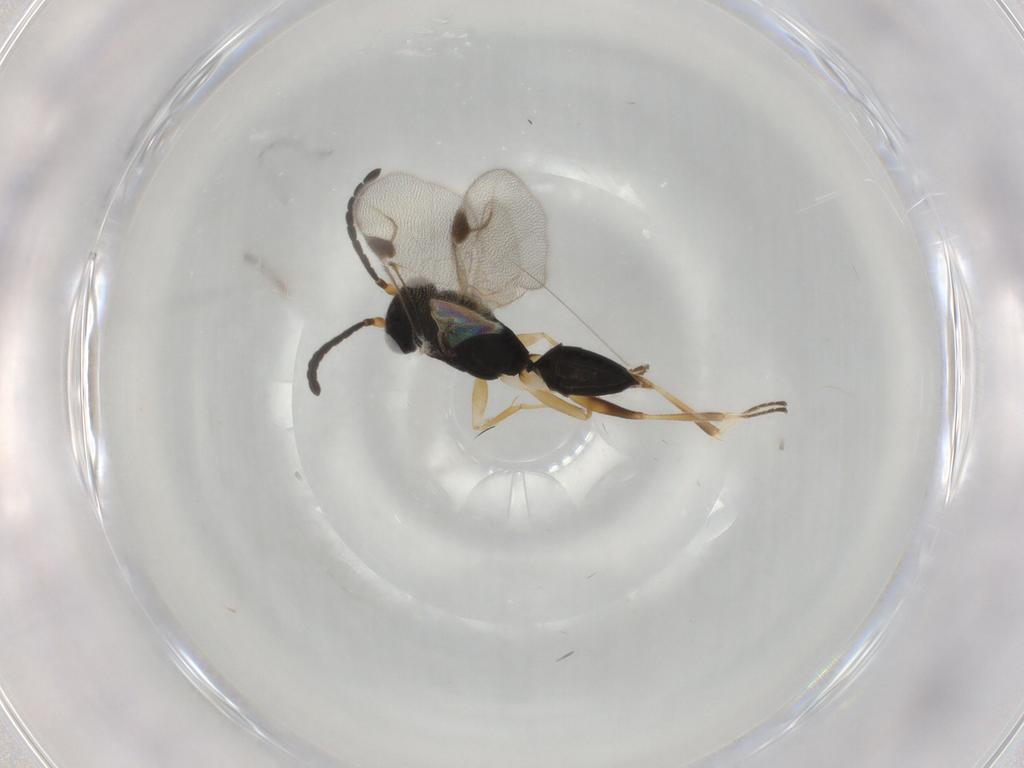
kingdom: Animalia
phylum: Arthropoda
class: Insecta
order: Hymenoptera
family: Dryinidae
